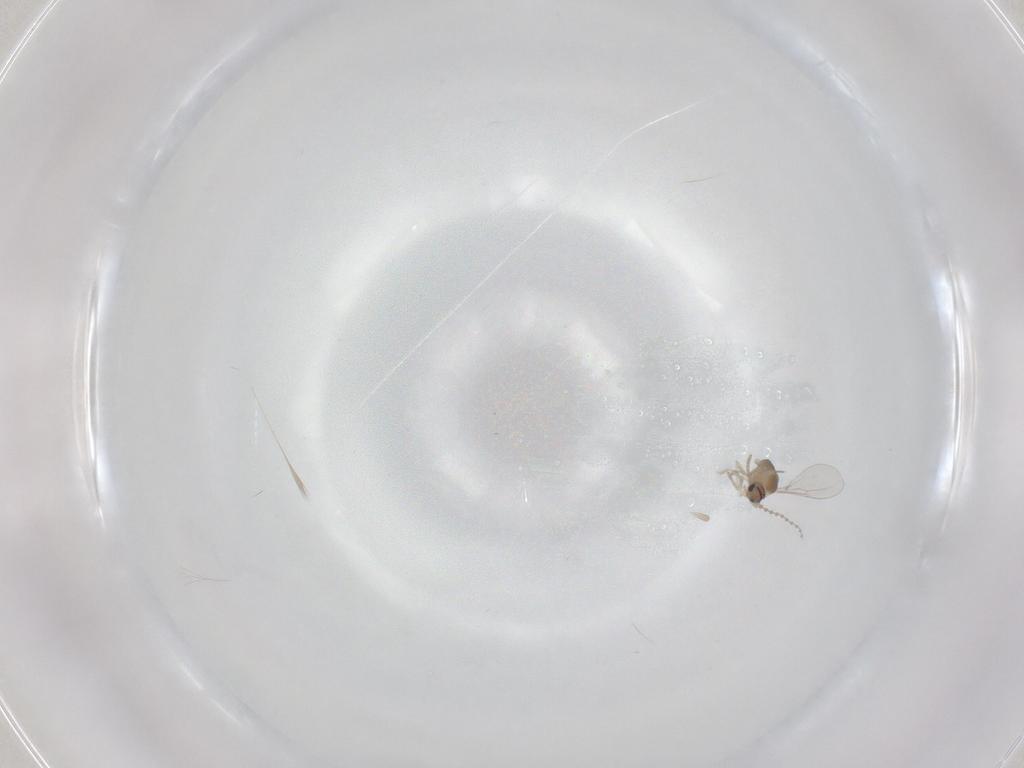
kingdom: Animalia
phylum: Arthropoda
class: Insecta
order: Diptera
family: Cecidomyiidae
